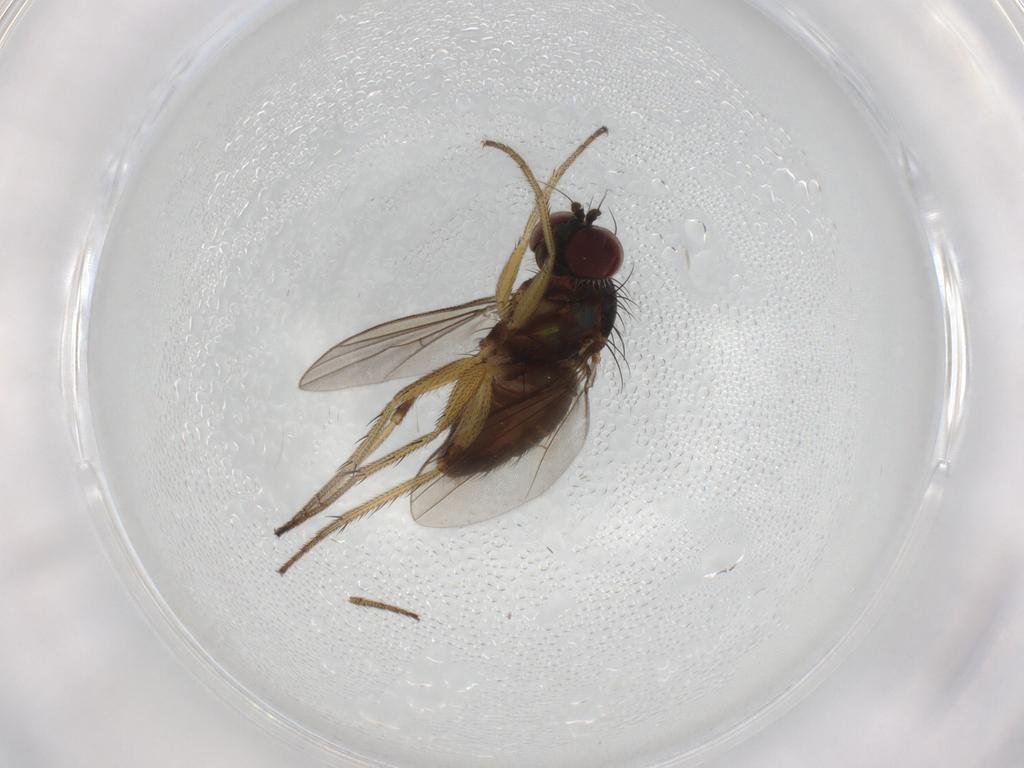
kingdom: Animalia
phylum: Arthropoda
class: Insecta
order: Diptera
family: Dolichopodidae
